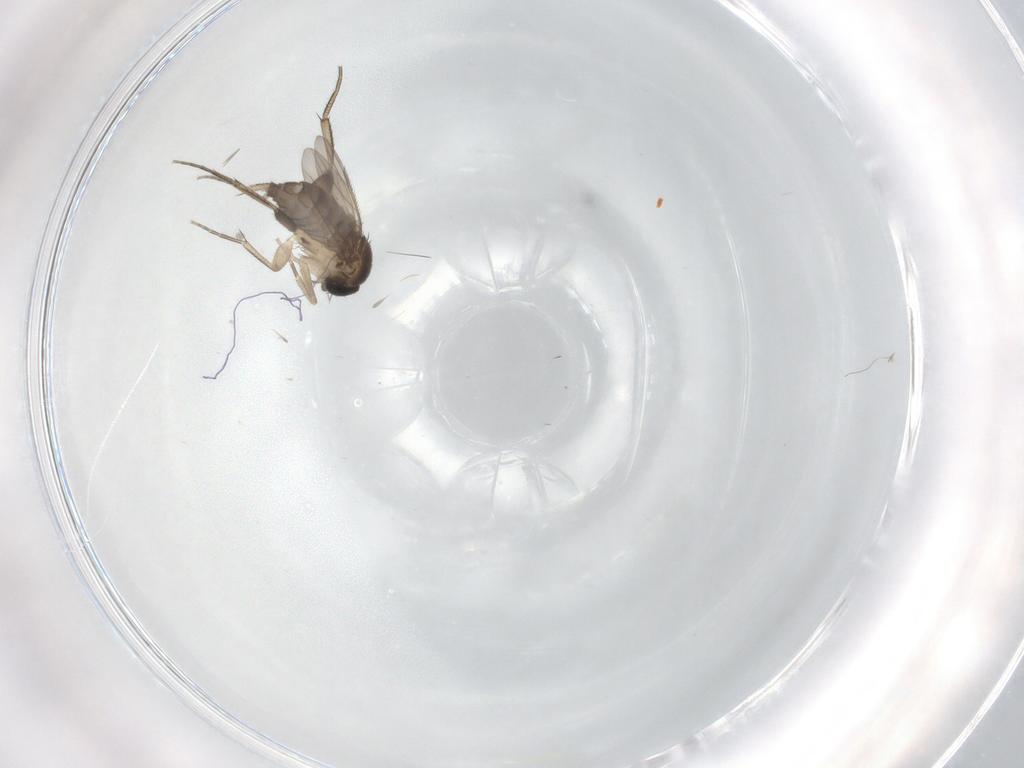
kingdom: Animalia
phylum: Arthropoda
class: Insecta
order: Diptera
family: Phoridae
